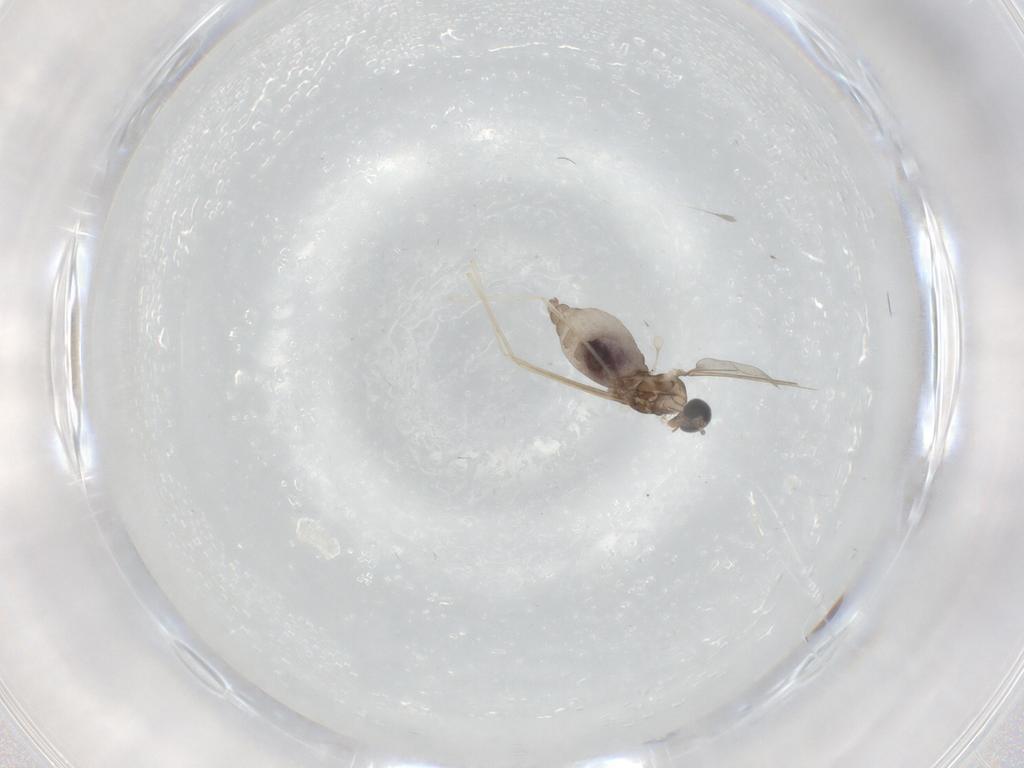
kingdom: Animalia
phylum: Arthropoda
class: Insecta
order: Diptera
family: Cecidomyiidae
